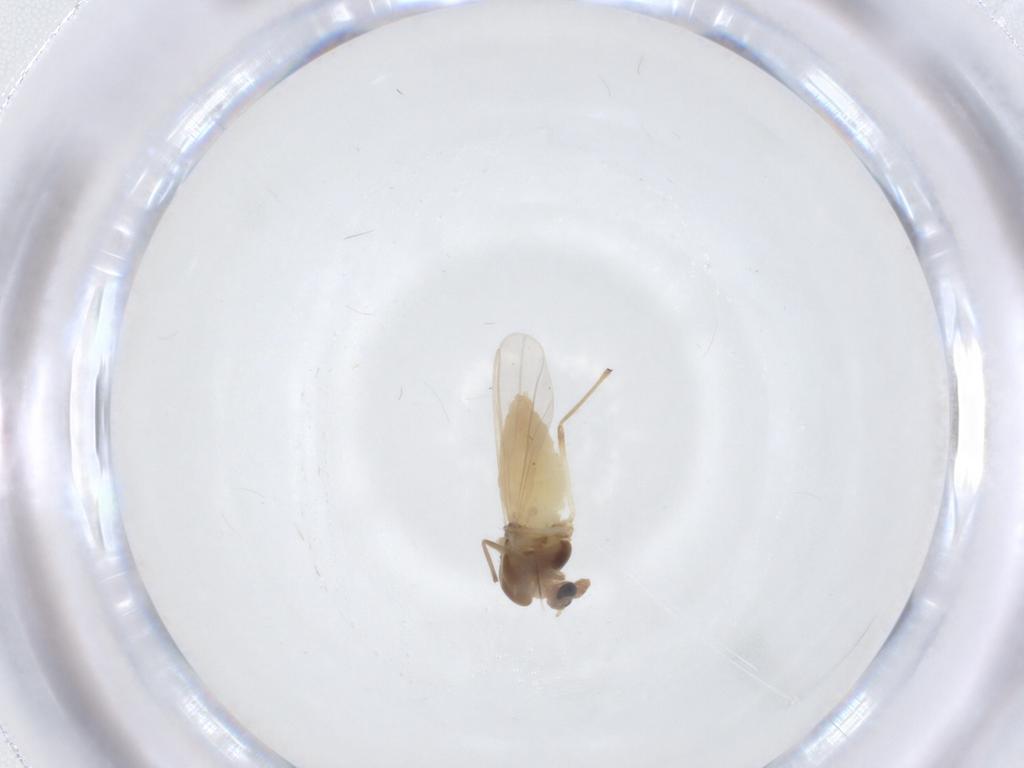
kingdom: Animalia
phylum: Arthropoda
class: Insecta
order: Diptera
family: Chironomidae
